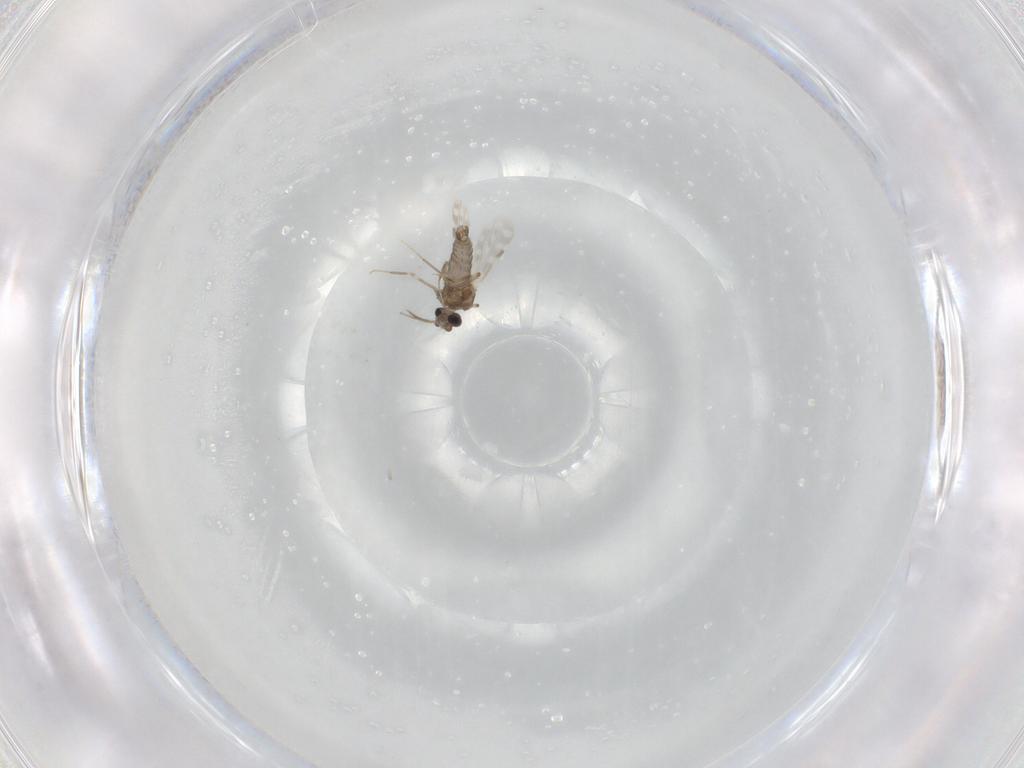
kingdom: Animalia
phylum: Arthropoda
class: Insecta
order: Diptera
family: Ceratopogonidae
